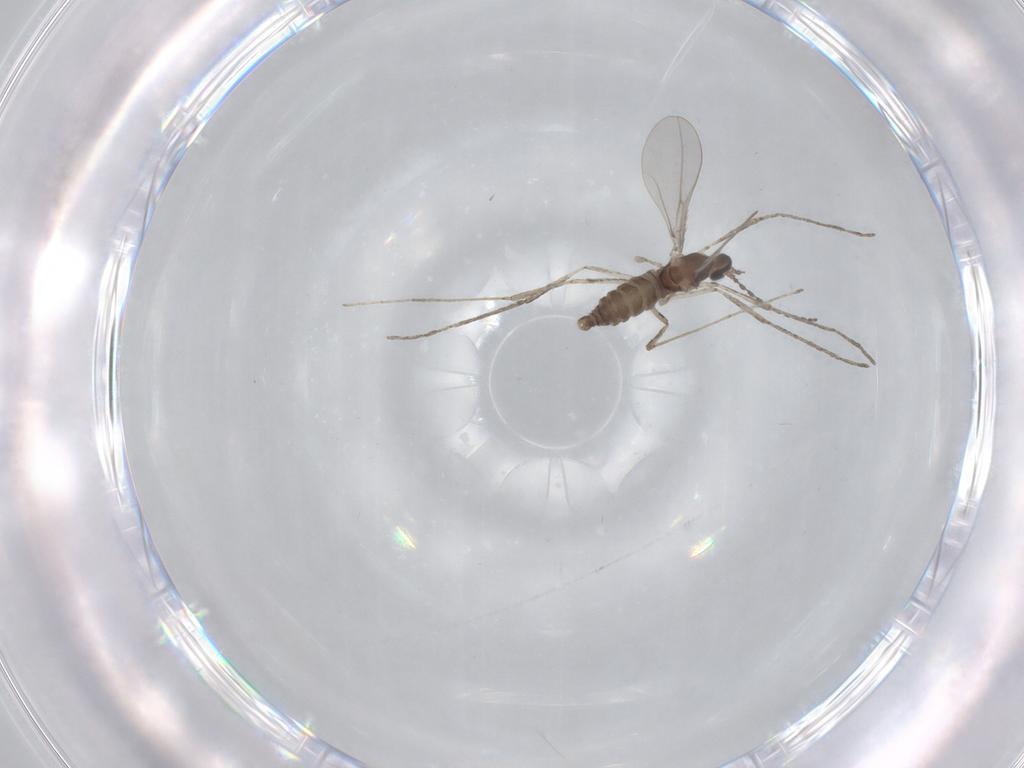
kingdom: Animalia
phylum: Arthropoda
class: Insecta
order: Diptera
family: Cecidomyiidae
